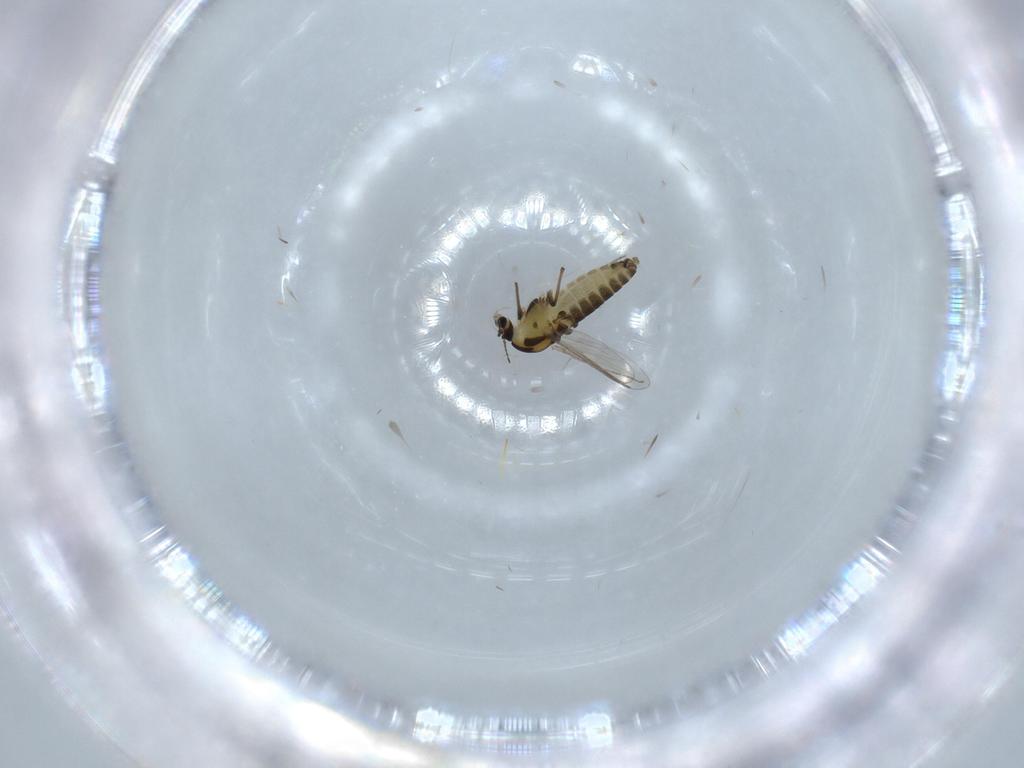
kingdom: Animalia
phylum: Arthropoda
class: Insecta
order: Diptera
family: Chironomidae
